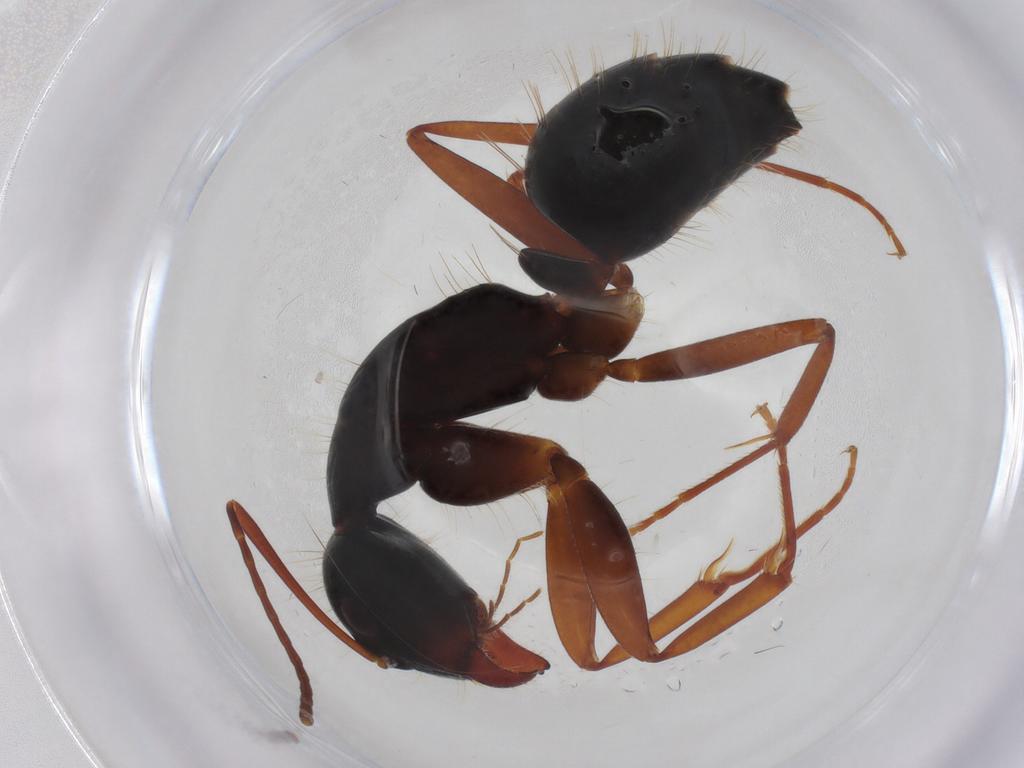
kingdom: Animalia
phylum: Arthropoda
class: Insecta
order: Hymenoptera
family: Formicidae
